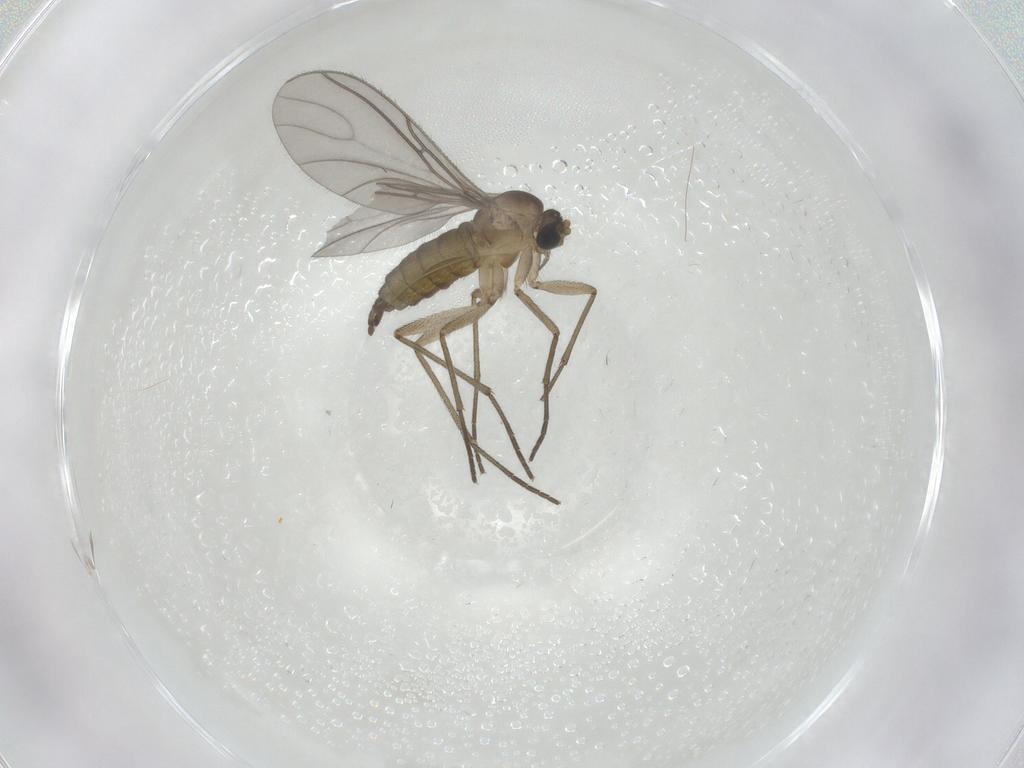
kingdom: Animalia
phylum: Arthropoda
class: Insecta
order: Diptera
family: Sciaridae
